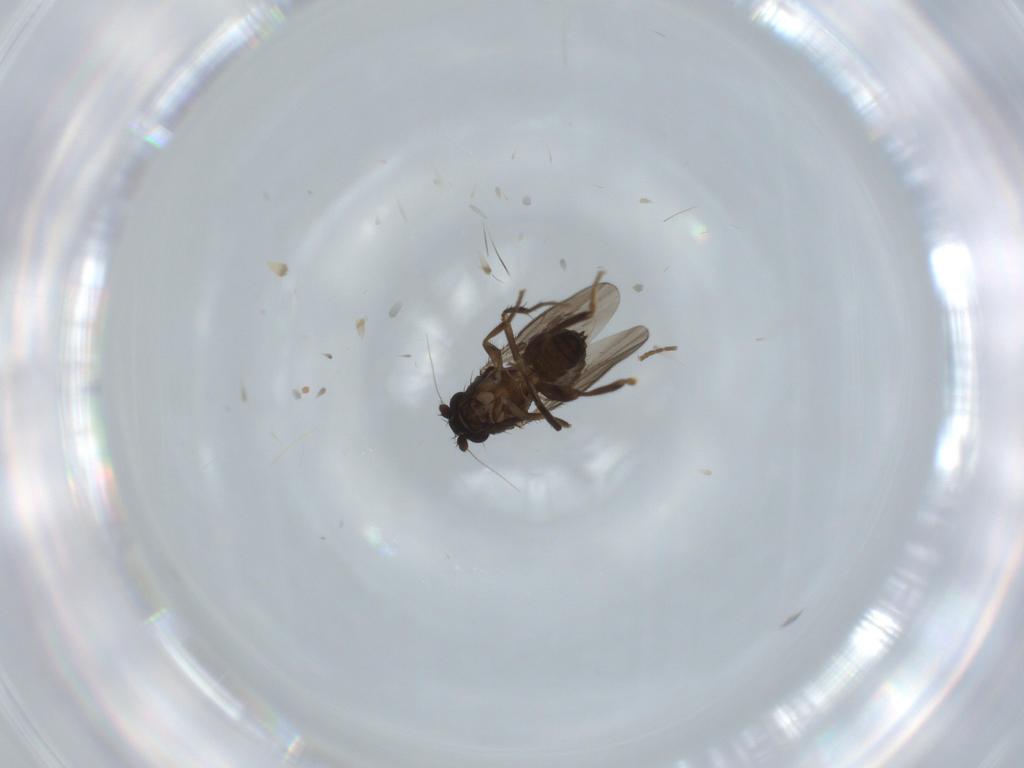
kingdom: Animalia
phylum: Arthropoda
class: Insecta
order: Diptera
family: Sphaeroceridae
